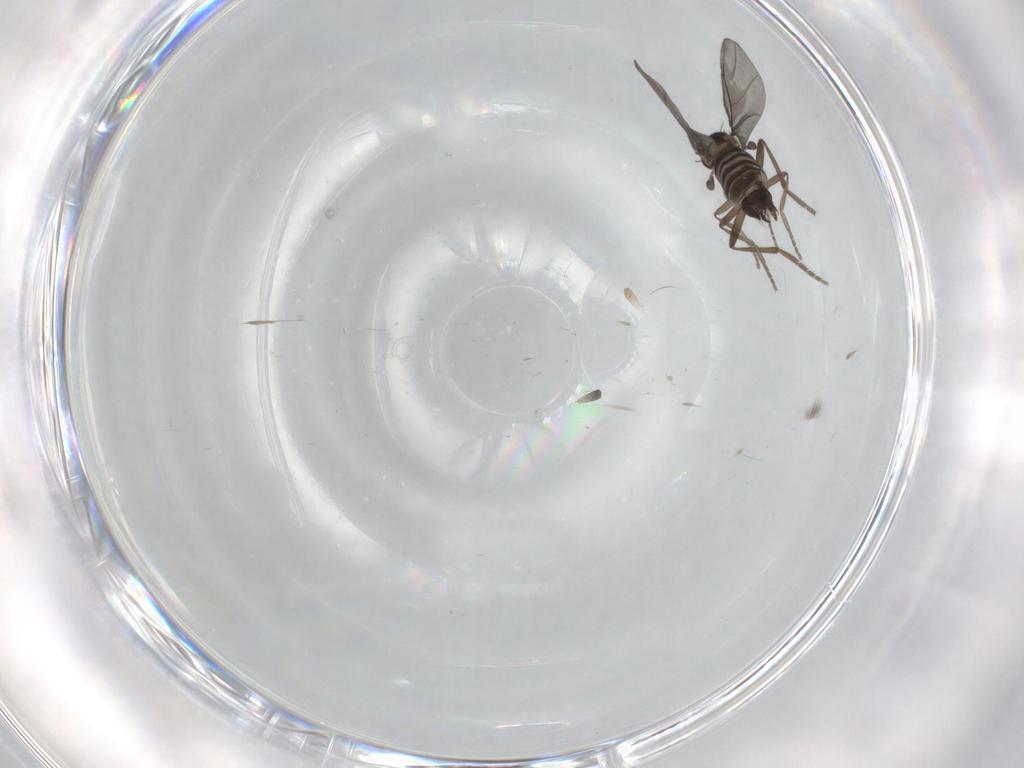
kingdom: Animalia
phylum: Arthropoda
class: Insecta
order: Diptera
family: Phoridae
